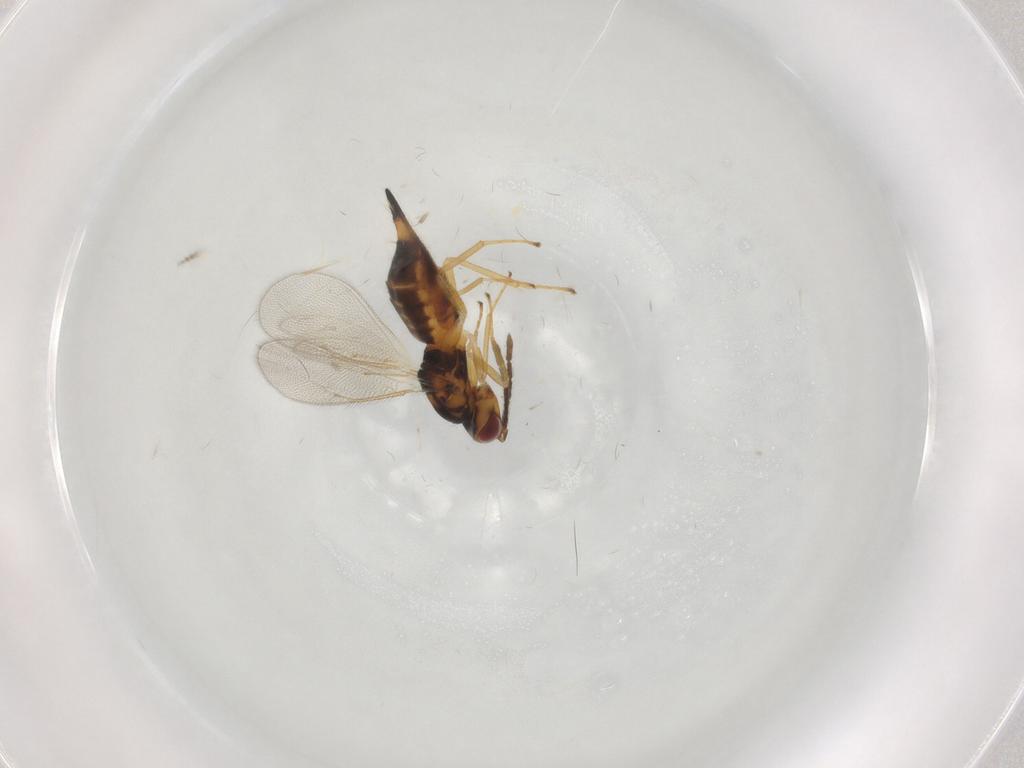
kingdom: Animalia
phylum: Arthropoda
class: Insecta
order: Hymenoptera
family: Eulophidae
